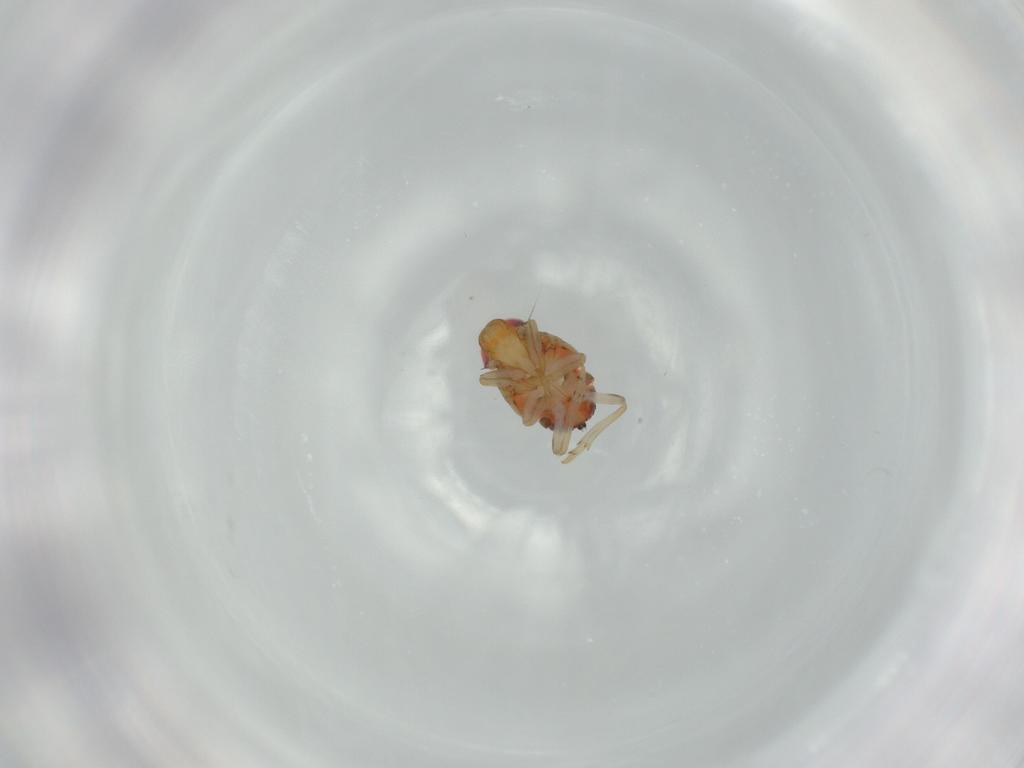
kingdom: Animalia
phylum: Arthropoda
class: Insecta
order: Hemiptera
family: Issidae
